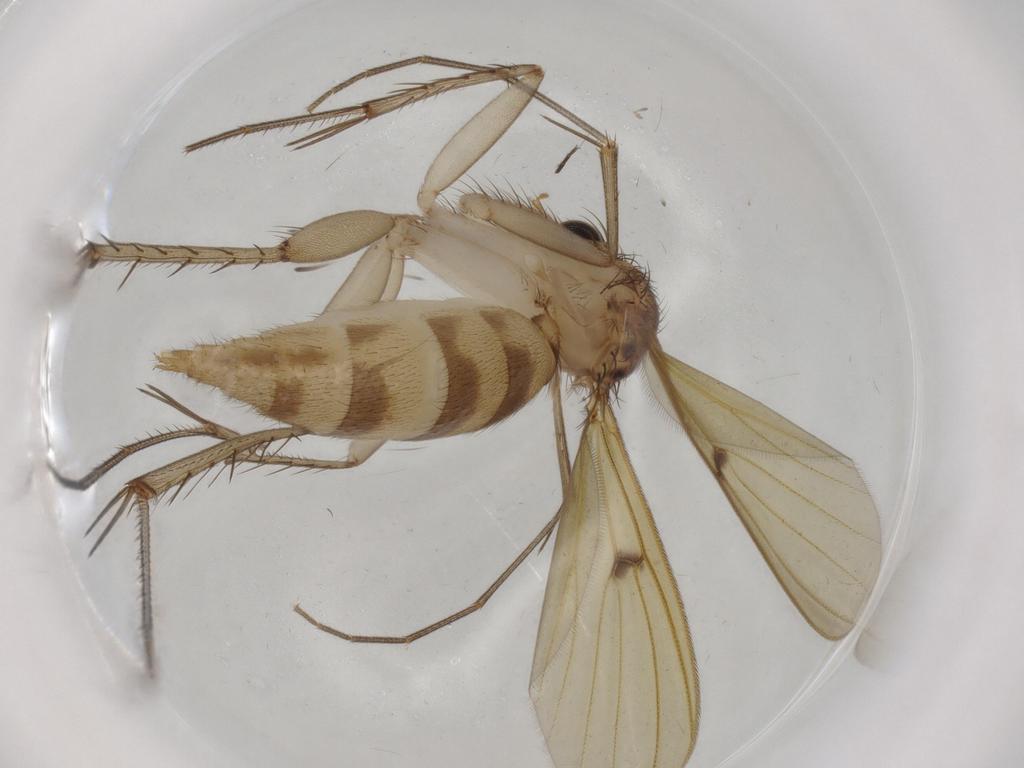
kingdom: Animalia
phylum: Arthropoda
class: Insecta
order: Diptera
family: Mycetophilidae
